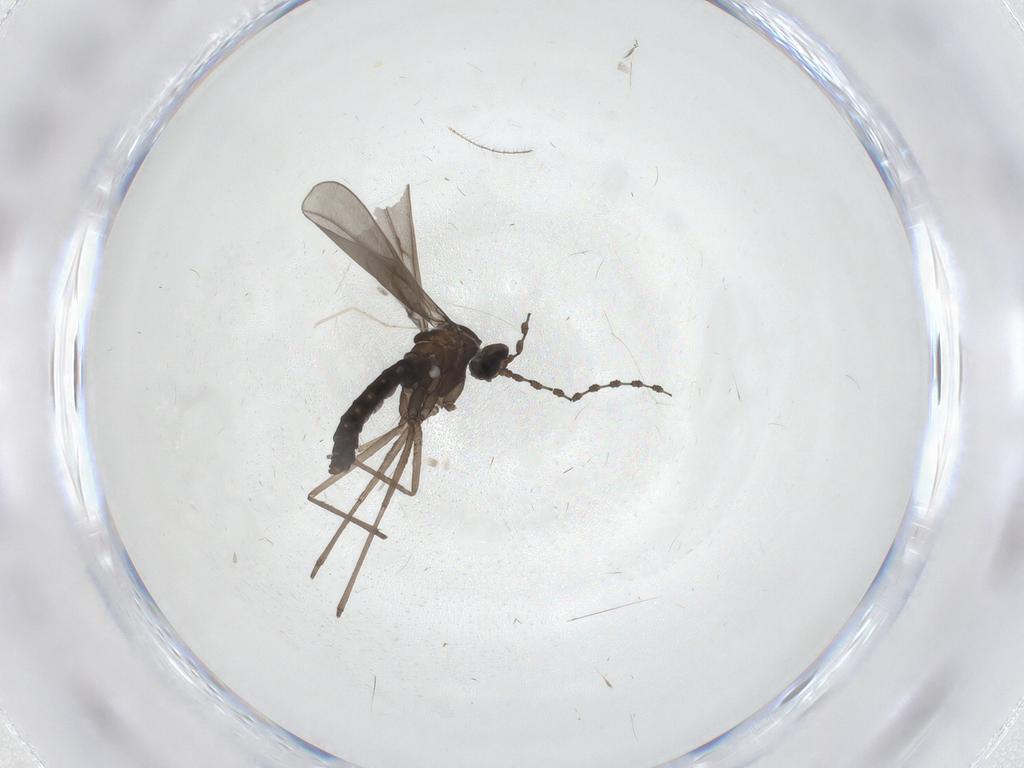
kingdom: Animalia
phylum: Arthropoda
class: Insecta
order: Diptera
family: Cecidomyiidae
